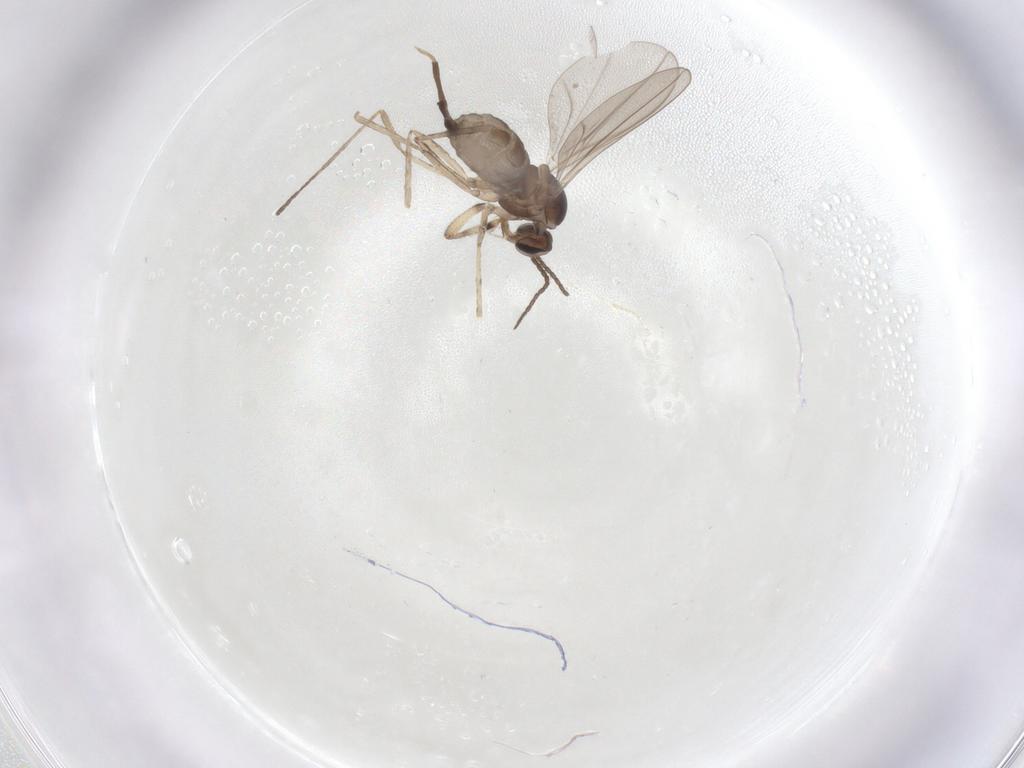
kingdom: Animalia
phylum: Arthropoda
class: Insecta
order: Diptera
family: Cecidomyiidae
